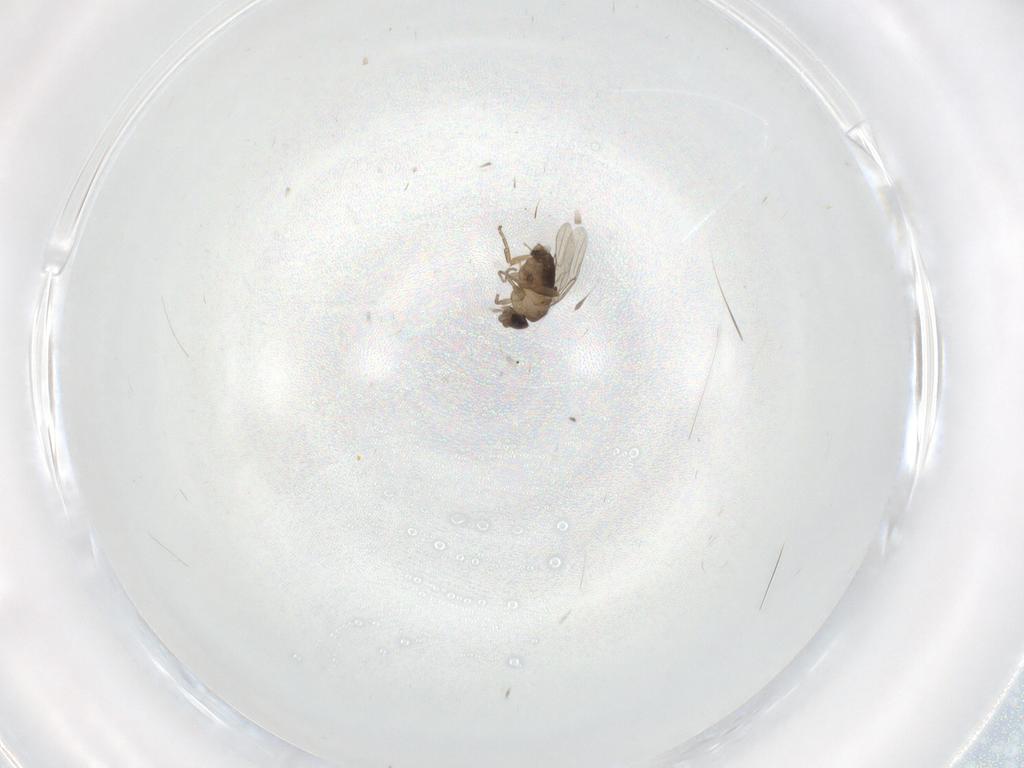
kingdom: Animalia
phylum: Arthropoda
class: Insecta
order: Diptera
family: Phoridae
